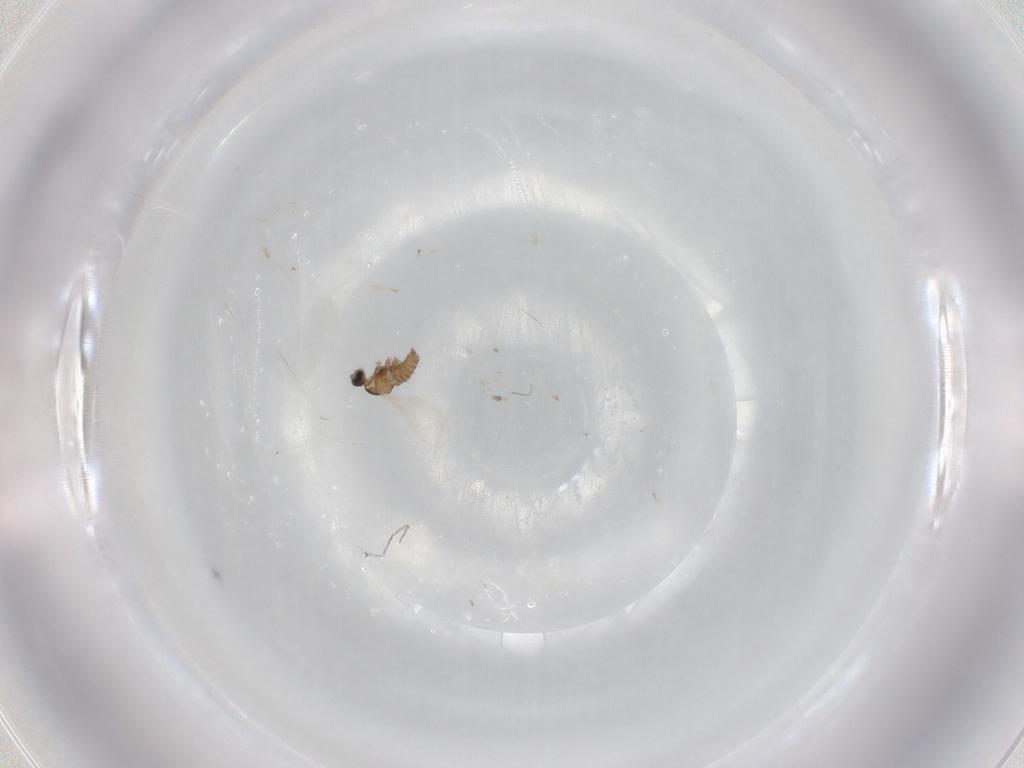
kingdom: Animalia
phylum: Arthropoda
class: Insecta
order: Diptera
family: Cecidomyiidae
